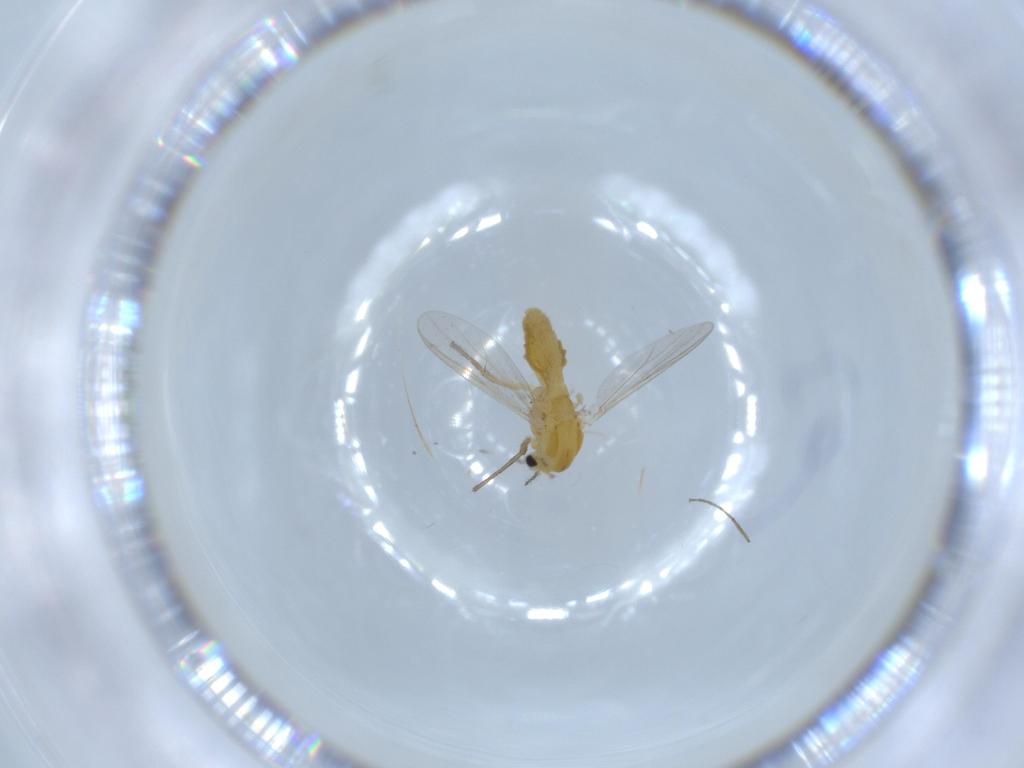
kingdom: Animalia
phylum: Arthropoda
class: Insecta
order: Diptera
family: Chironomidae
